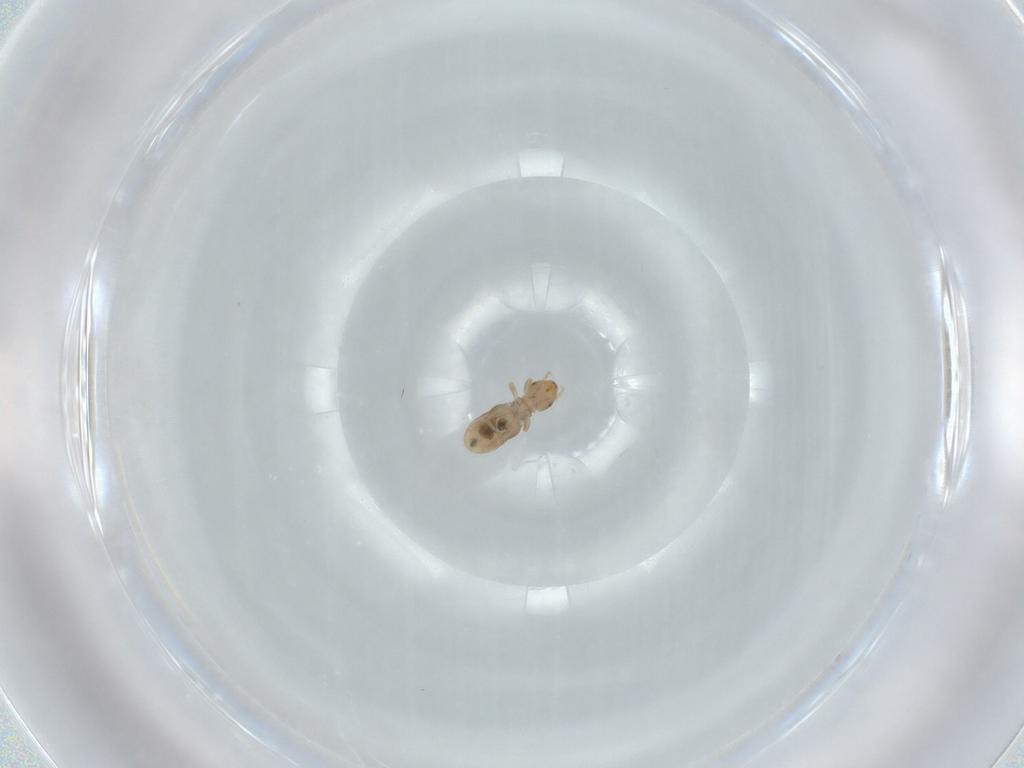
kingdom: Animalia
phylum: Arthropoda
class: Insecta
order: Psocodea
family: Liposcelididae
